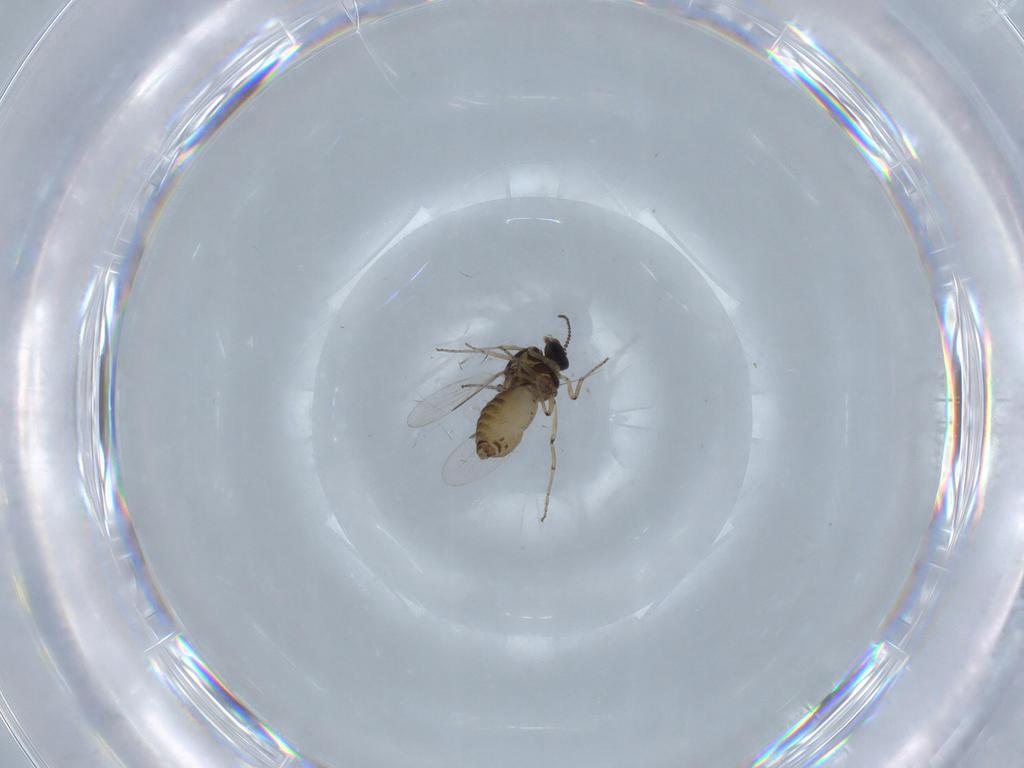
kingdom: Animalia
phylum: Arthropoda
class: Insecta
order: Diptera
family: Ceratopogonidae
